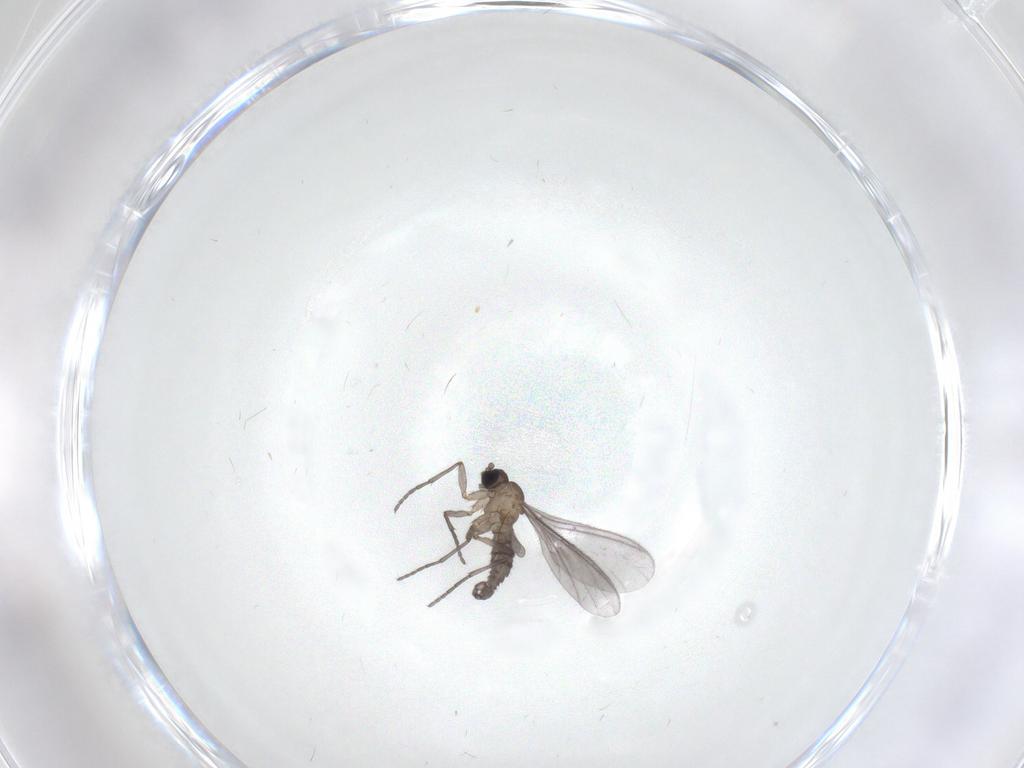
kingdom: Animalia
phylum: Arthropoda
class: Insecta
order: Diptera
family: Sciaridae
